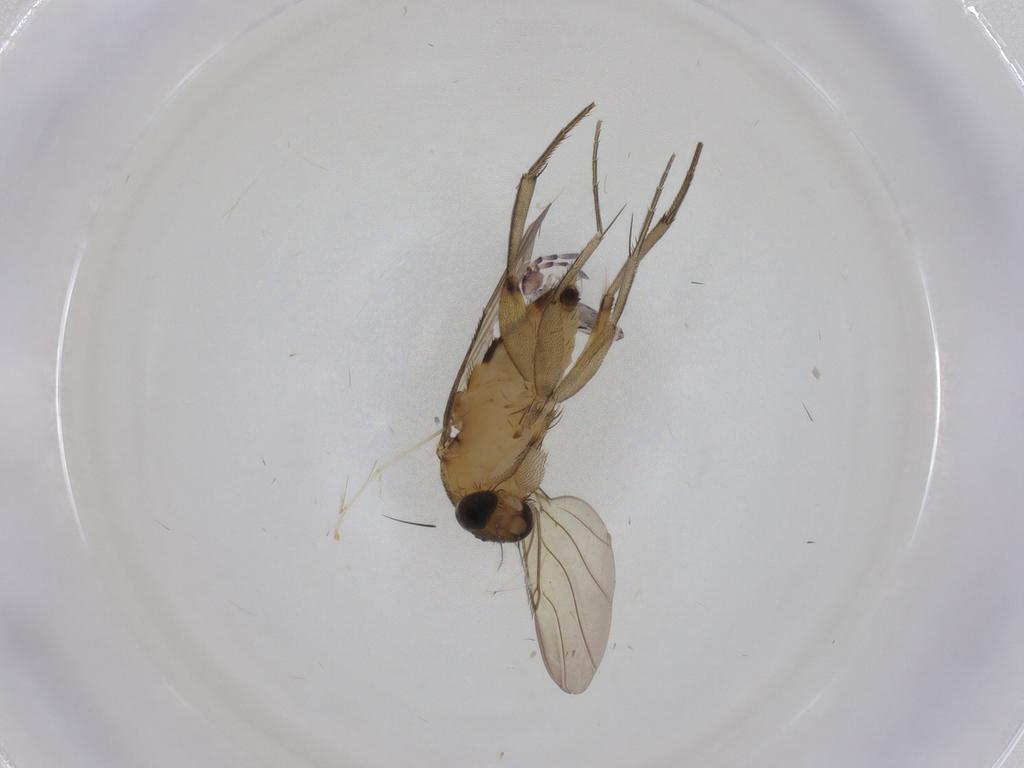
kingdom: Animalia
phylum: Arthropoda
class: Insecta
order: Diptera
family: Phoridae
